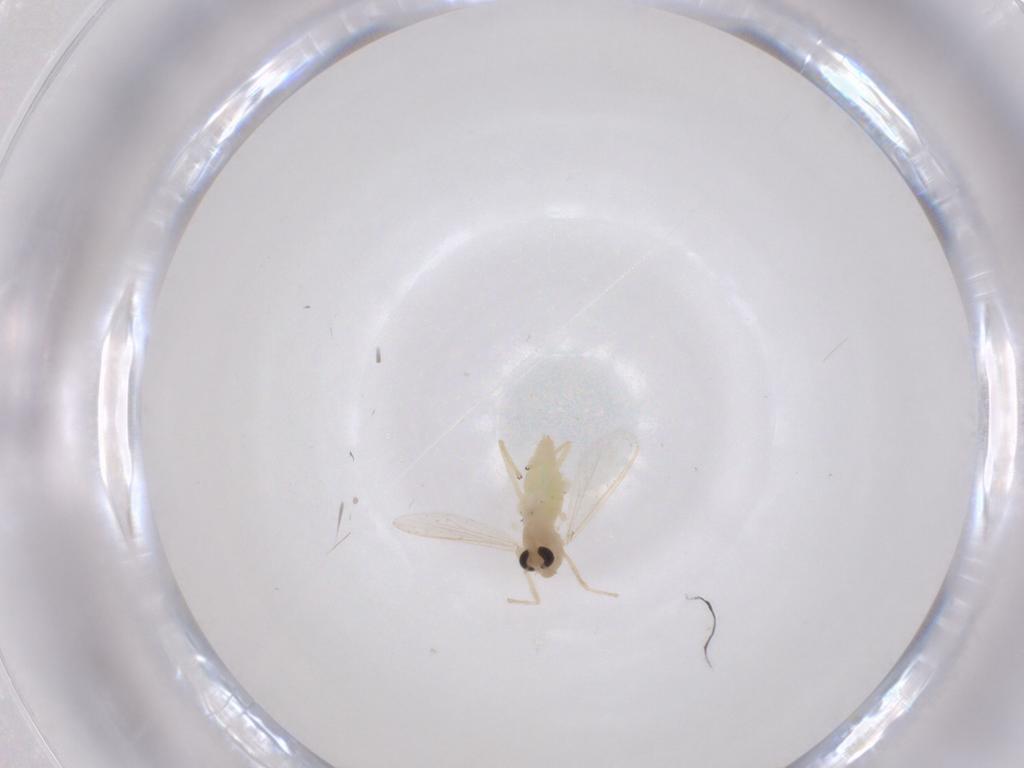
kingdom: Animalia
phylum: Arthropoda
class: Insecta
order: Diptera
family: Chironomidae
